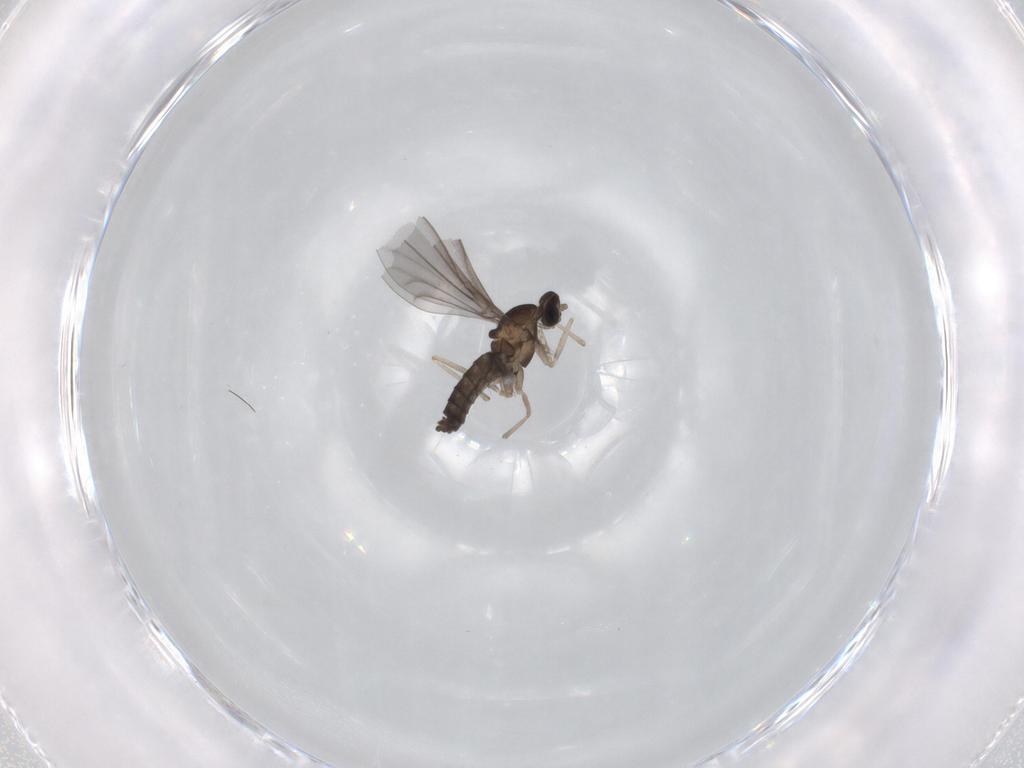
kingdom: Animalia
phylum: Arthropoda
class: Insecta
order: Diptera
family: Cecidomyiidae
